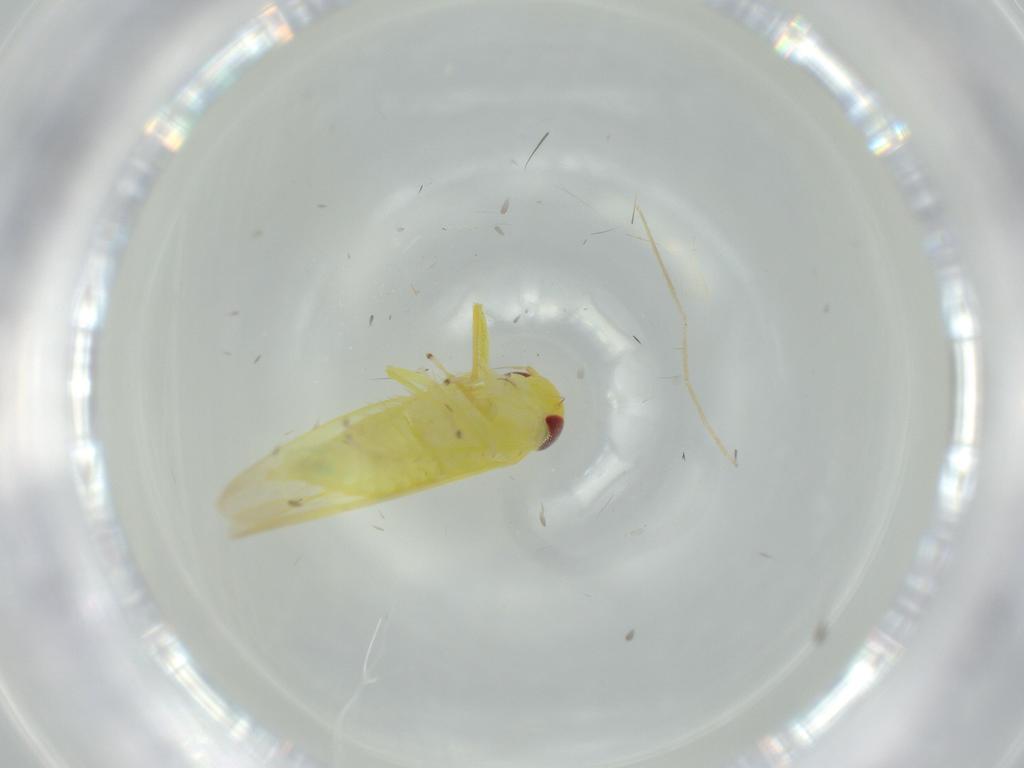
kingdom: Animalia
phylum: Arthropoda
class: Insecta
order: Hemiptera
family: Cicadellidae
